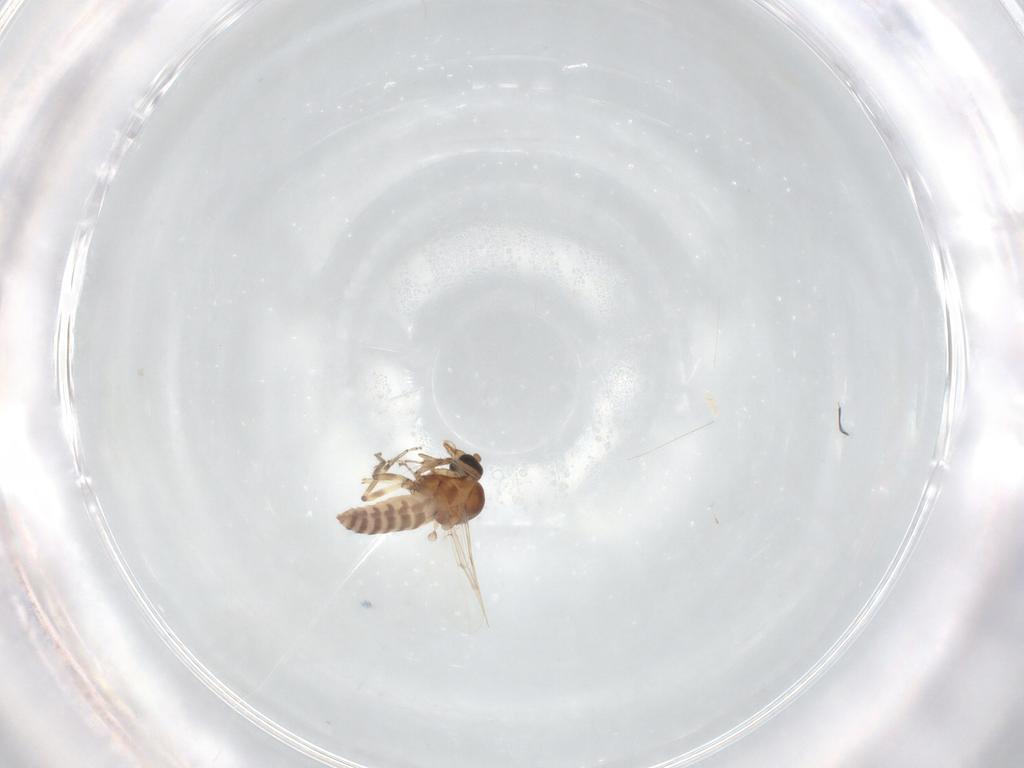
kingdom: Animalia
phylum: Arthropoda
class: Insecta
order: Diptera
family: Ceratopogonidae
